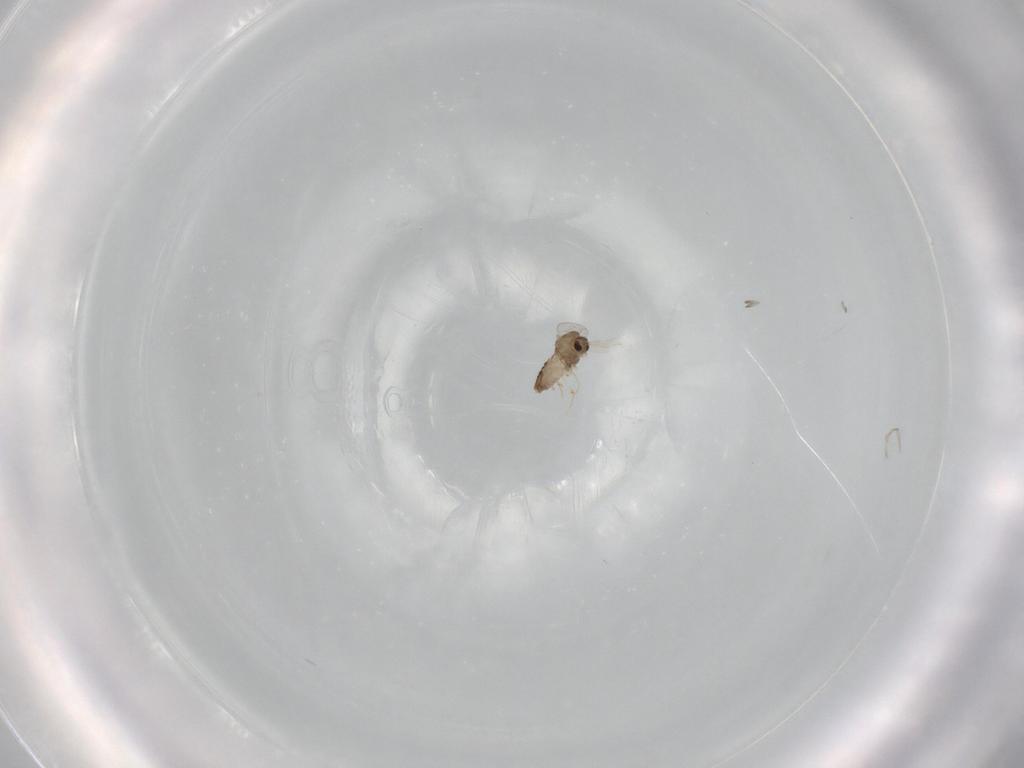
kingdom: Animalia
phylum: Arthropoda
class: Insecta
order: Diptera
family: Chironomidae
